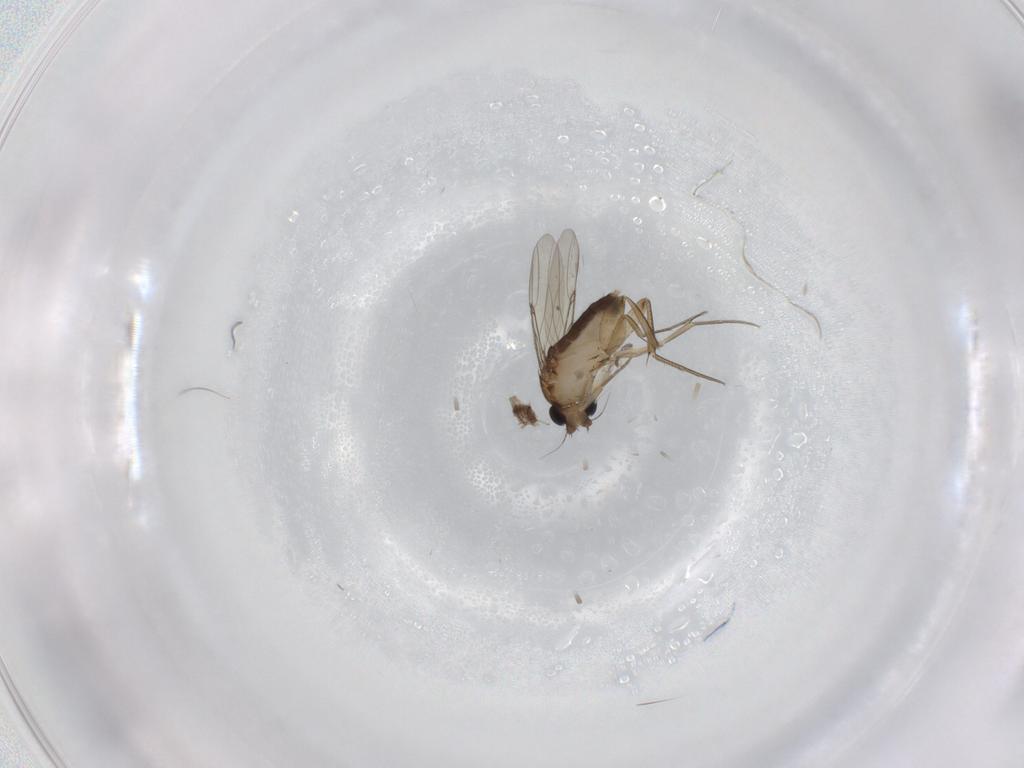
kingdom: Animalia
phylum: Arthropoda
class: Insecta
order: Diptera
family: Phoridae
